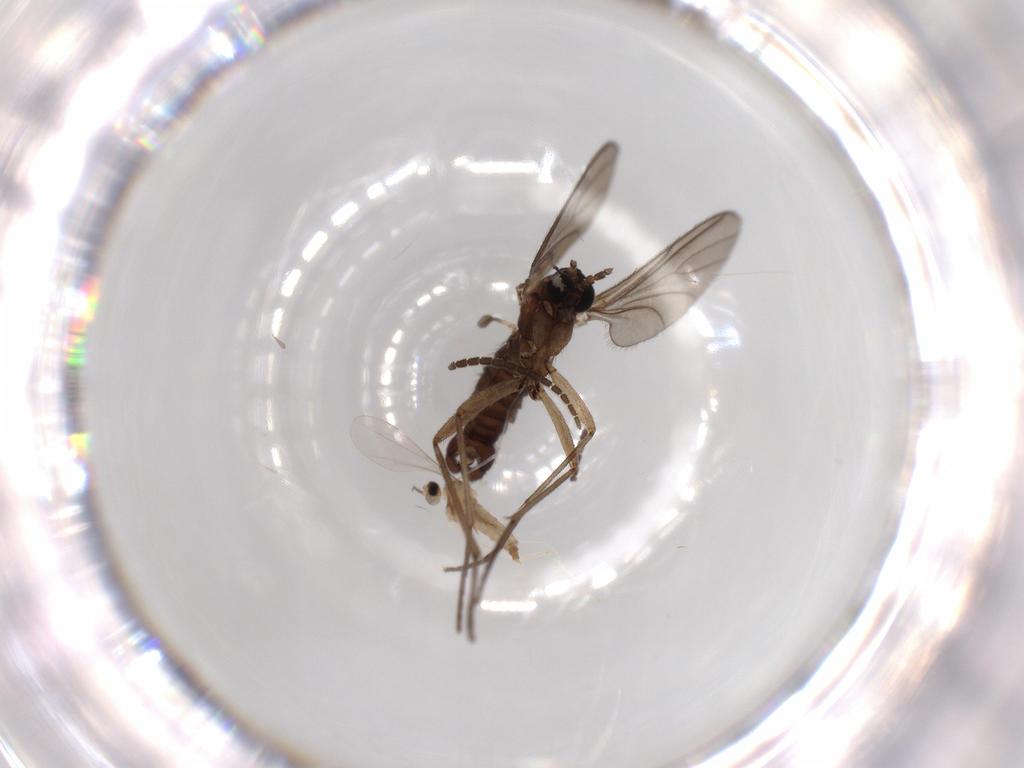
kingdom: Animalia
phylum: Arthropoda
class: Insecta
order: Diptera
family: Sciaridae
